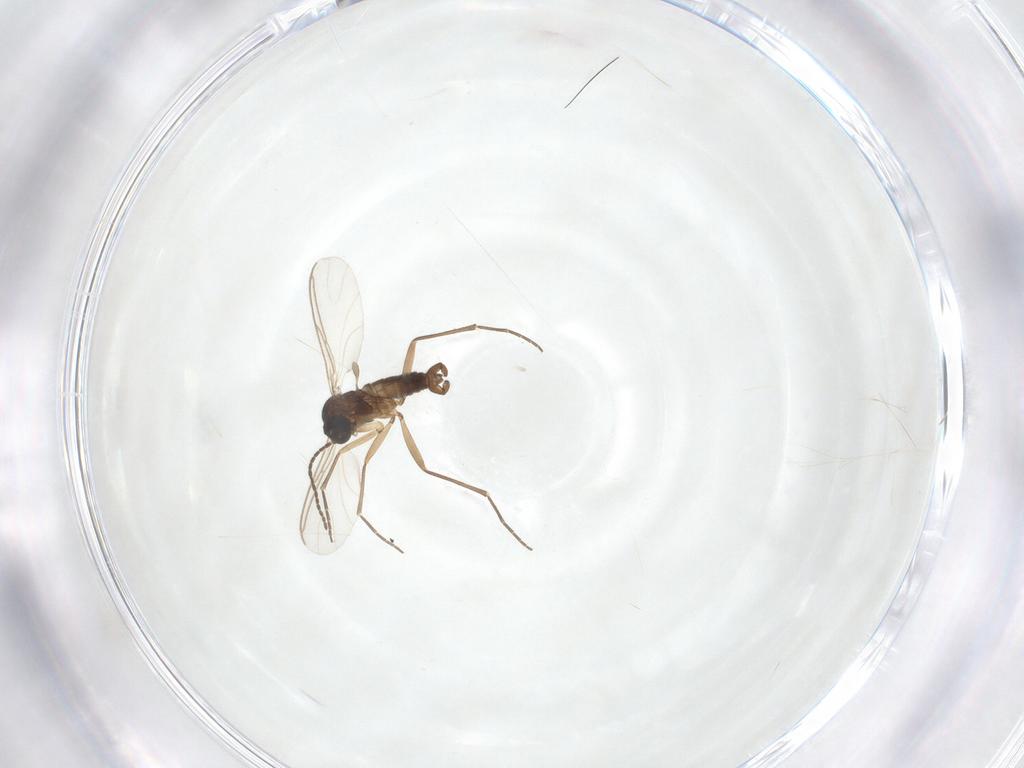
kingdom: Animalia
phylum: Arthropoda
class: Insecta
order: Diptera
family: Sciaridae
